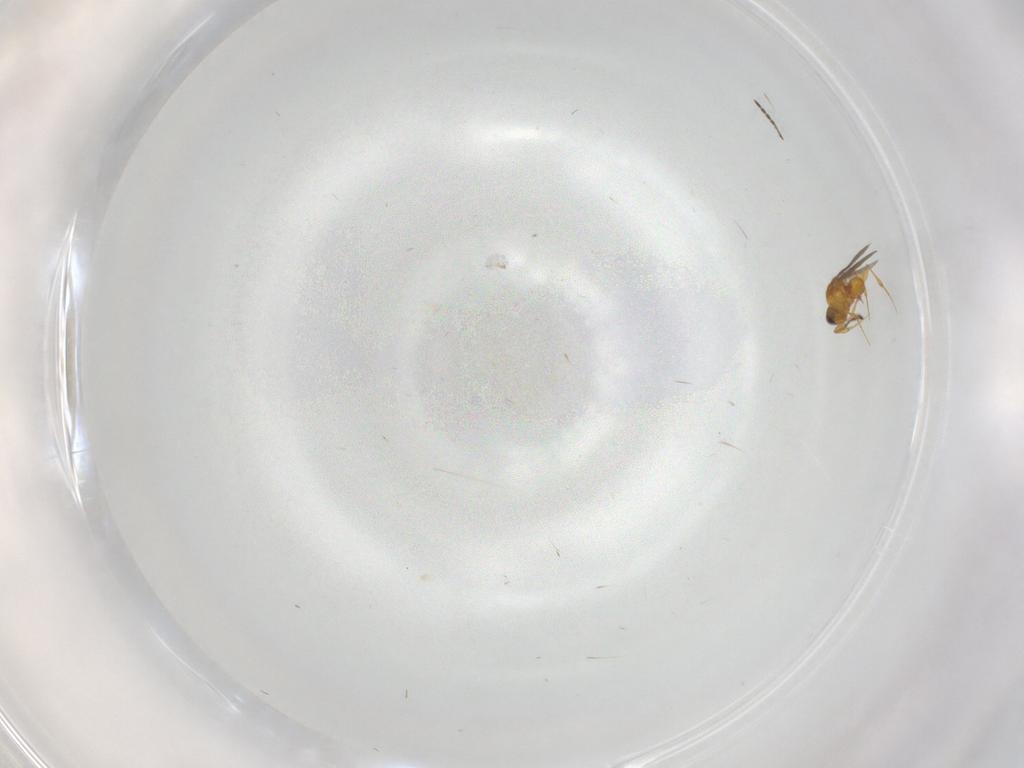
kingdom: Animalia
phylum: Arthropoda
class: Insecta
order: Hymenoptera
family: Platygastridae
